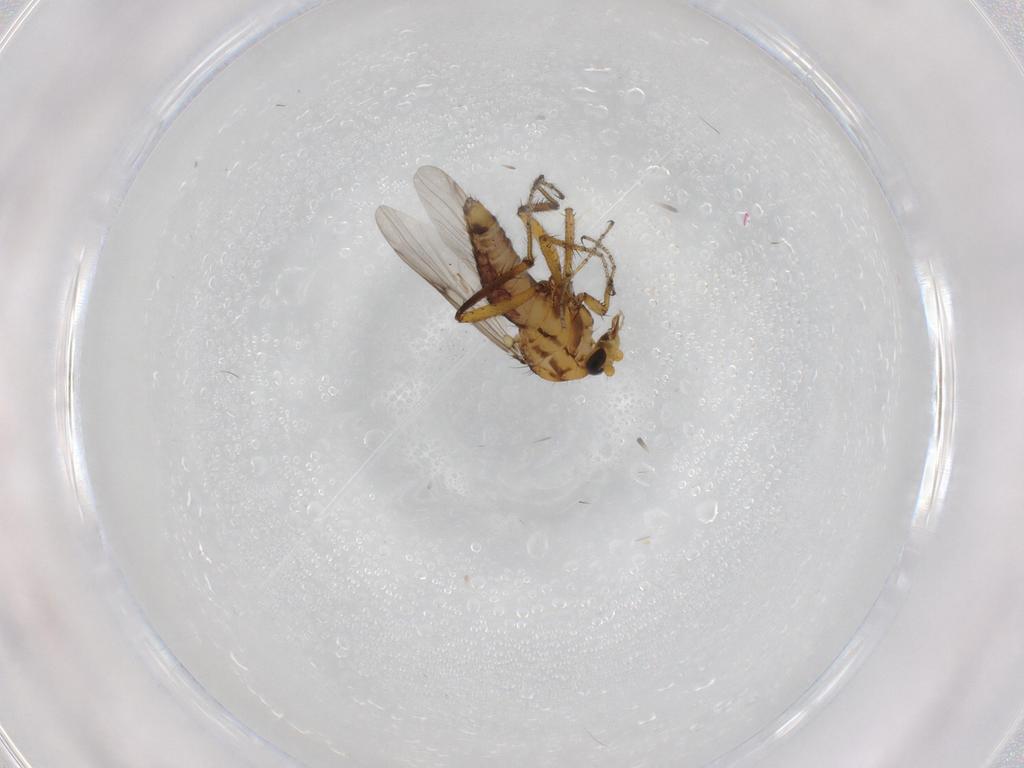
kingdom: Animalia
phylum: Arthropoda
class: Insecta
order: Diptera
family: Ceratopogonidae
